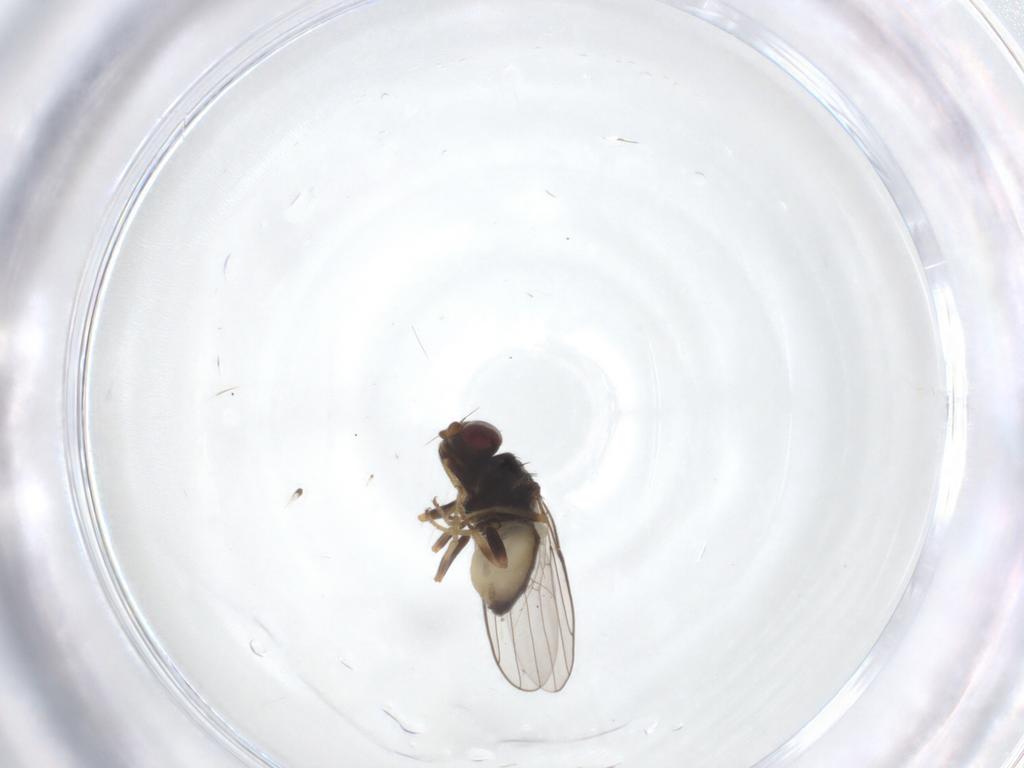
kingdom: Animalia
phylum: Arthropoda
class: Insecta
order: Diptera
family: Chloropidae
